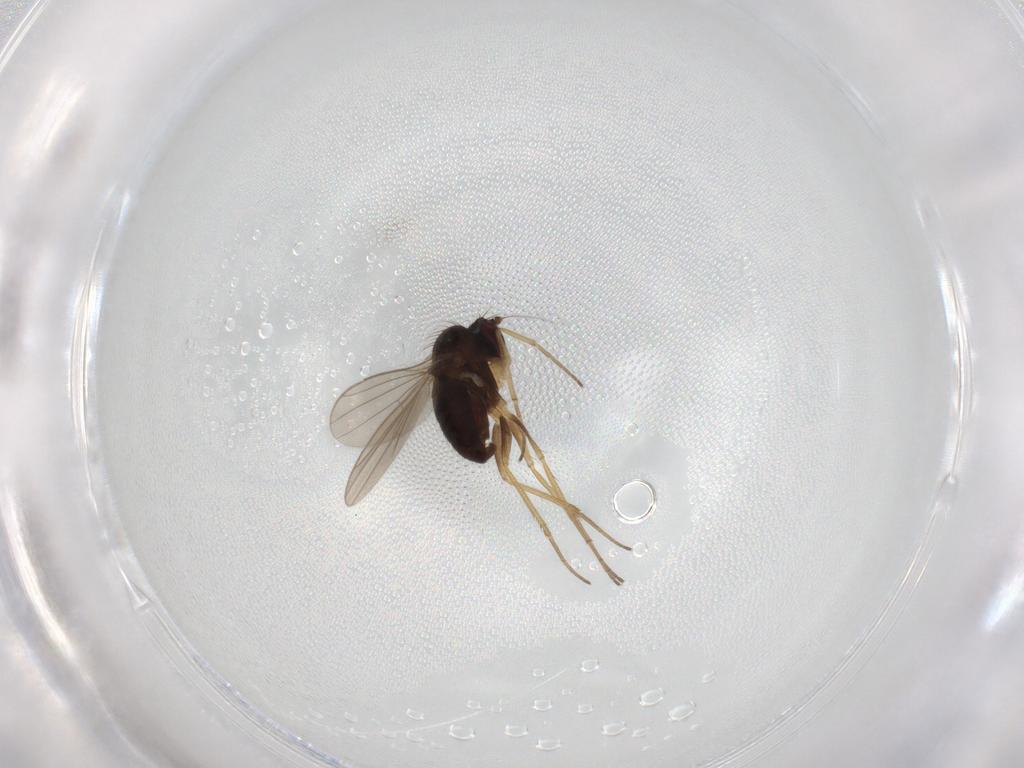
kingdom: Animalia
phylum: Arthropoda
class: Insecta
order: Diptera
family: Dolichopodidae
